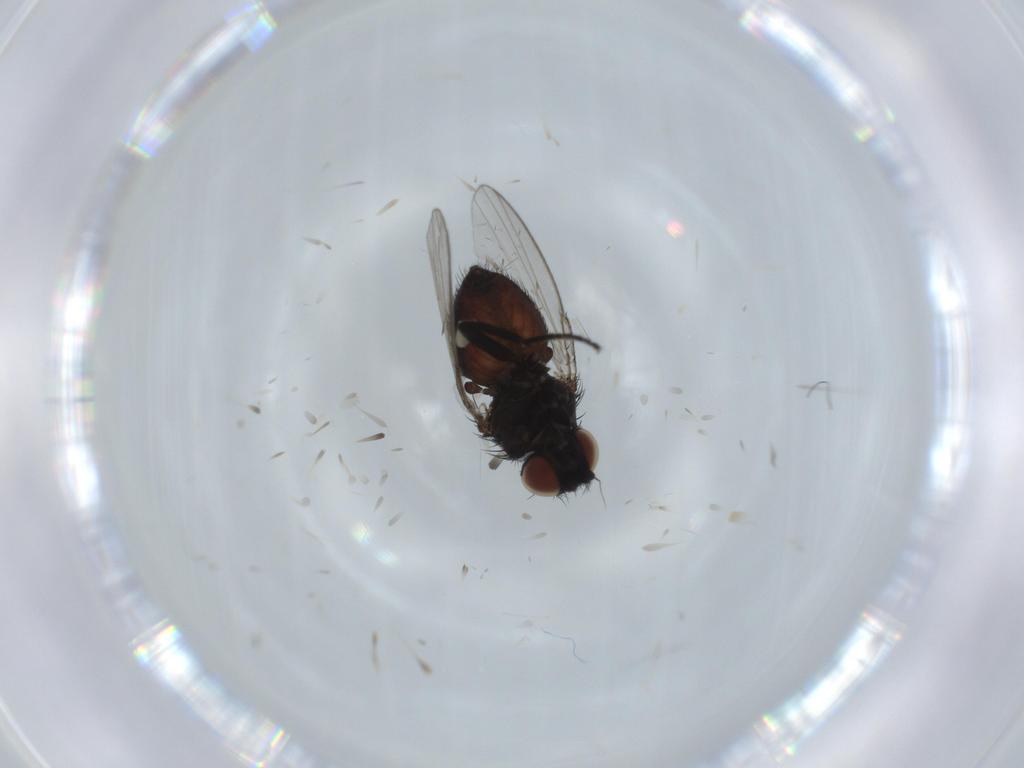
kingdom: Animalia
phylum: Arthropoda
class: Insecta
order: Diptera
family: Milichiidae
